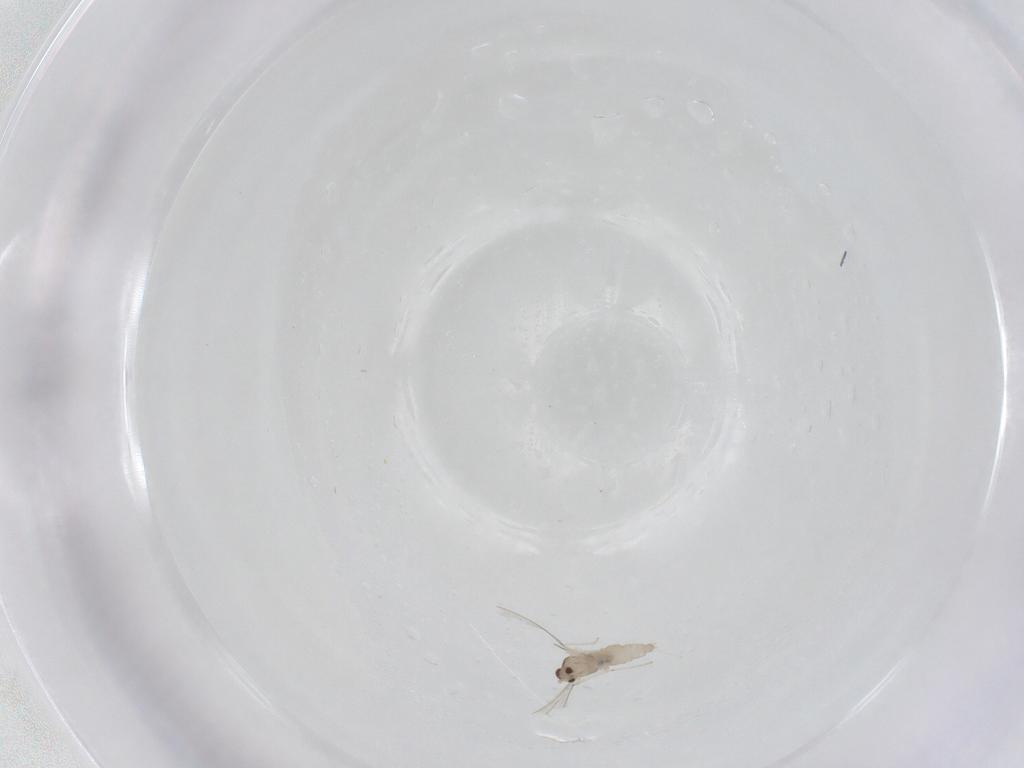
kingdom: Animalia
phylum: Arthropoda
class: Insecta
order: Diptera
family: Cecidomyiidae
